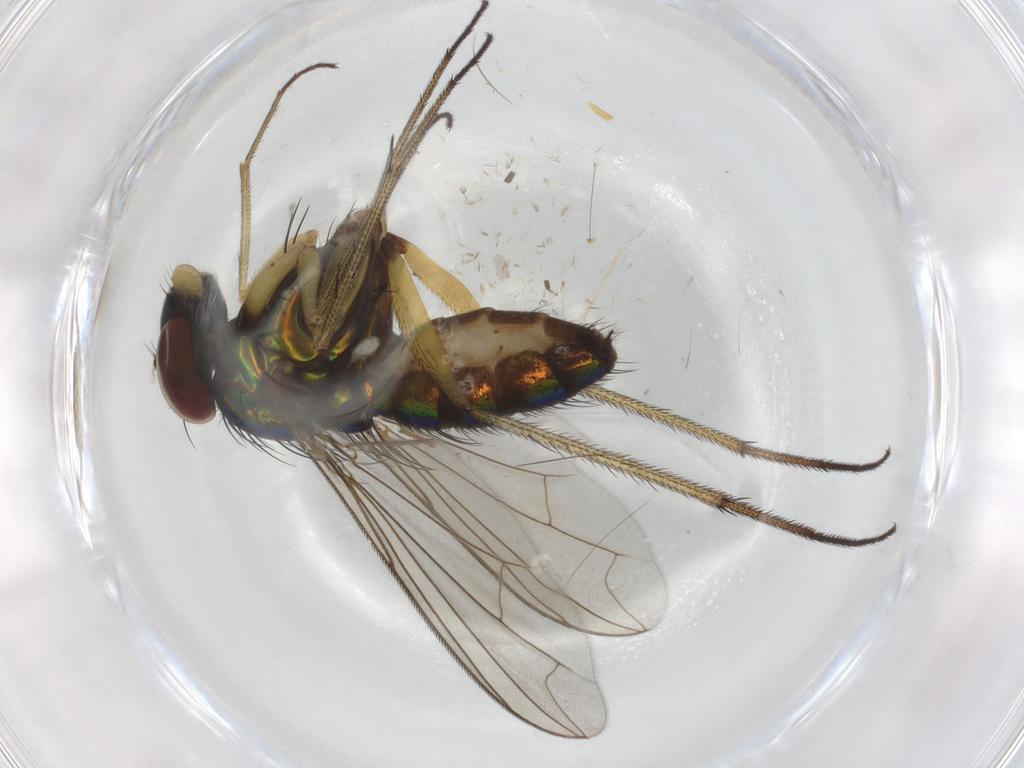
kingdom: Animalia
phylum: Arthropoda
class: Insecta
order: Diptera
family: Dolichopodidae
